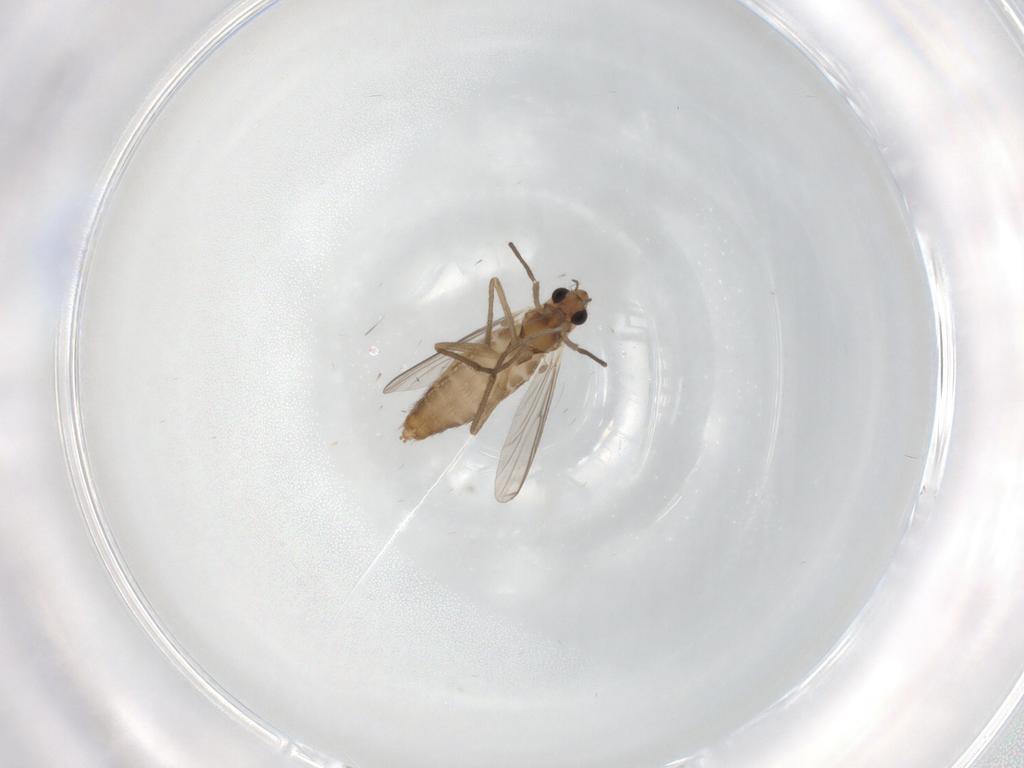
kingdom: Animalia
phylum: Arthropoda
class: Insecta
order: Diptera
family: Chironomidae
